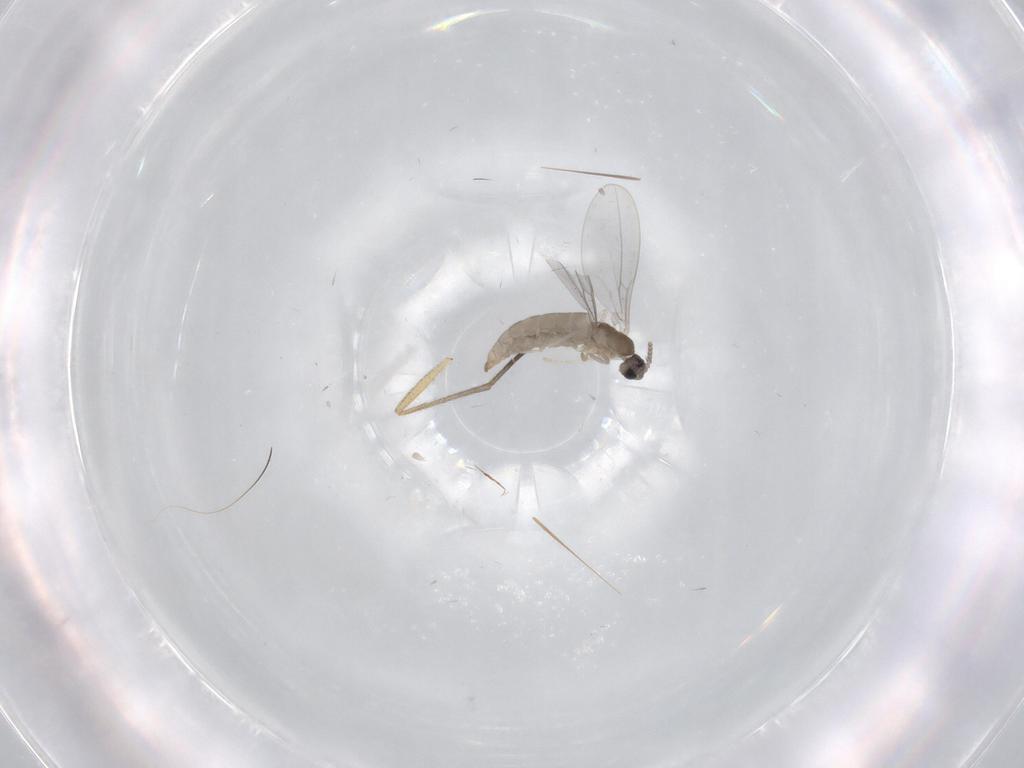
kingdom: Animalia
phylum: Arthropoda
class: Insecta
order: Diptera
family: Cecidomyiidae
